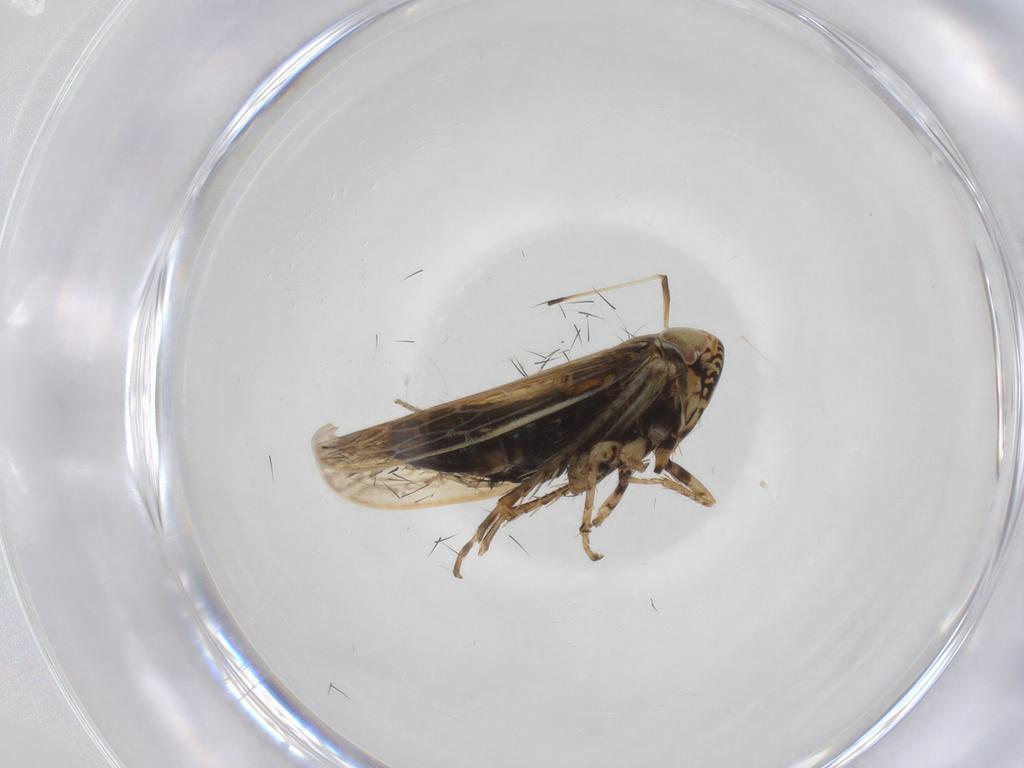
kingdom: Animalia
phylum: Arthropoda
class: Insecta
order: Hemiptera
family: Cicadellidae
